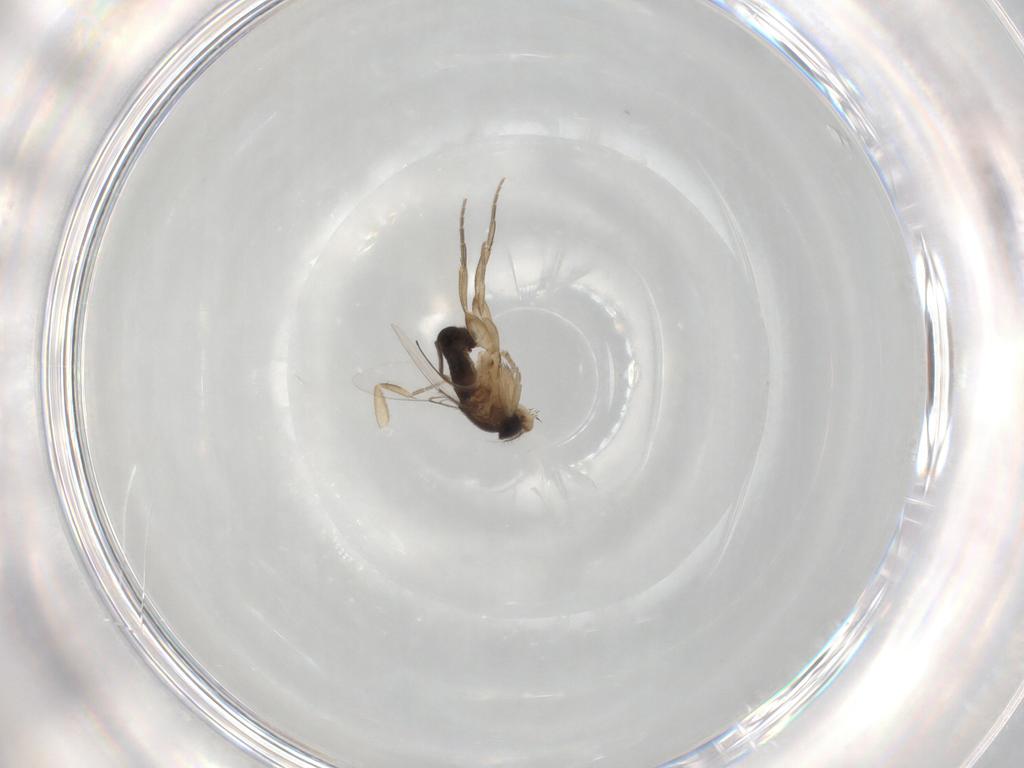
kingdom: Animalia
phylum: Arthropoda
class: Insecta
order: Diptera
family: Phoridae
